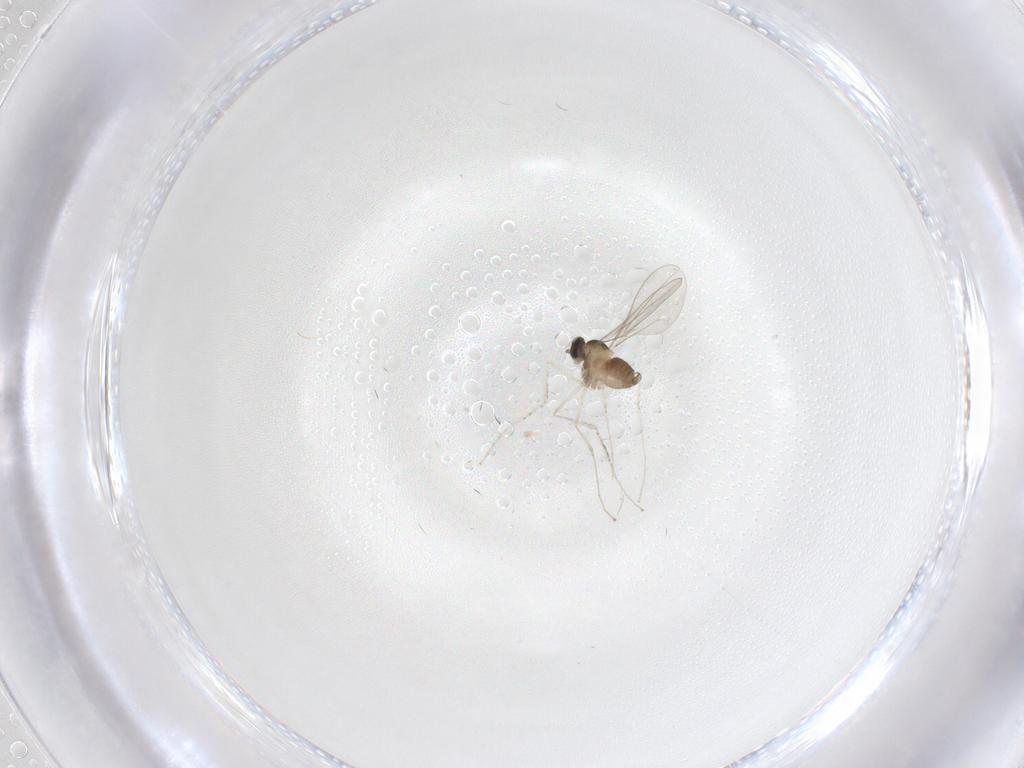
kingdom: Animalia
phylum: Arthropoda
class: Insecta
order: Diptera
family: Cecidomyiidae
